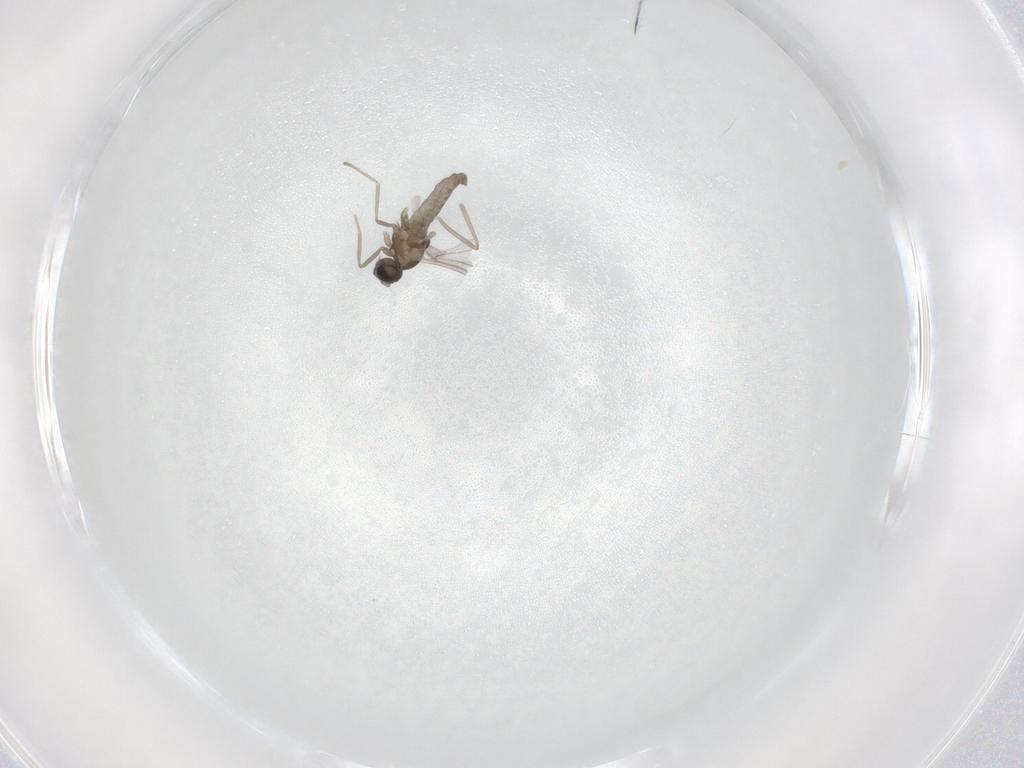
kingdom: Animalia
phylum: Arthropoda
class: Insecta
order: Diptera
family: Cecidomyiidae
